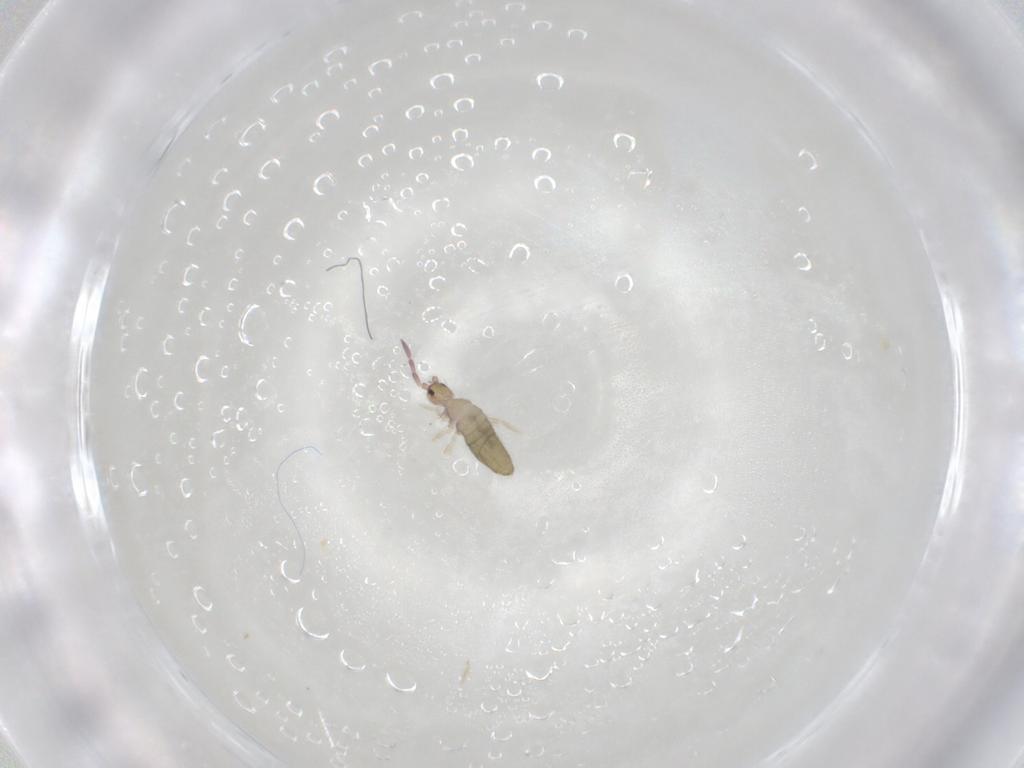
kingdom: Animalia
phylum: Arthropoda
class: Collembola
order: Entomobryomorpha
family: Entomobryidae
